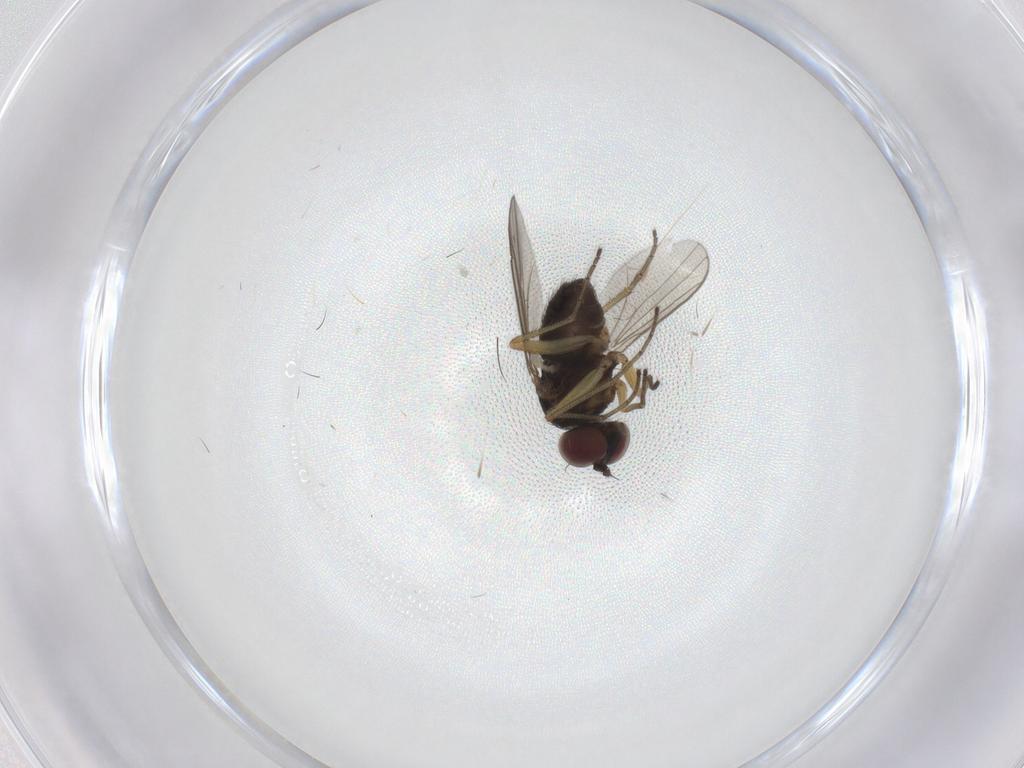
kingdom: Animalia
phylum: Arthropoda
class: Insecta
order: Diptera
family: Dolichopodidae
